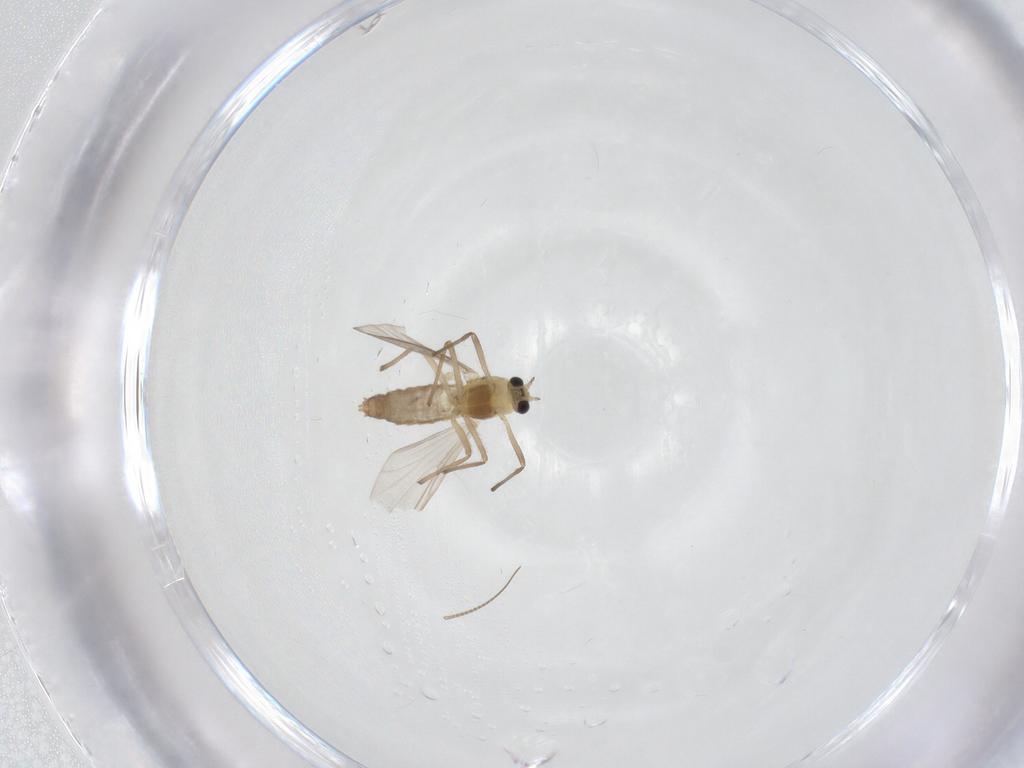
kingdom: Animalia
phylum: Arthropoda
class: Insecta
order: Diptera
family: Chironomidae
